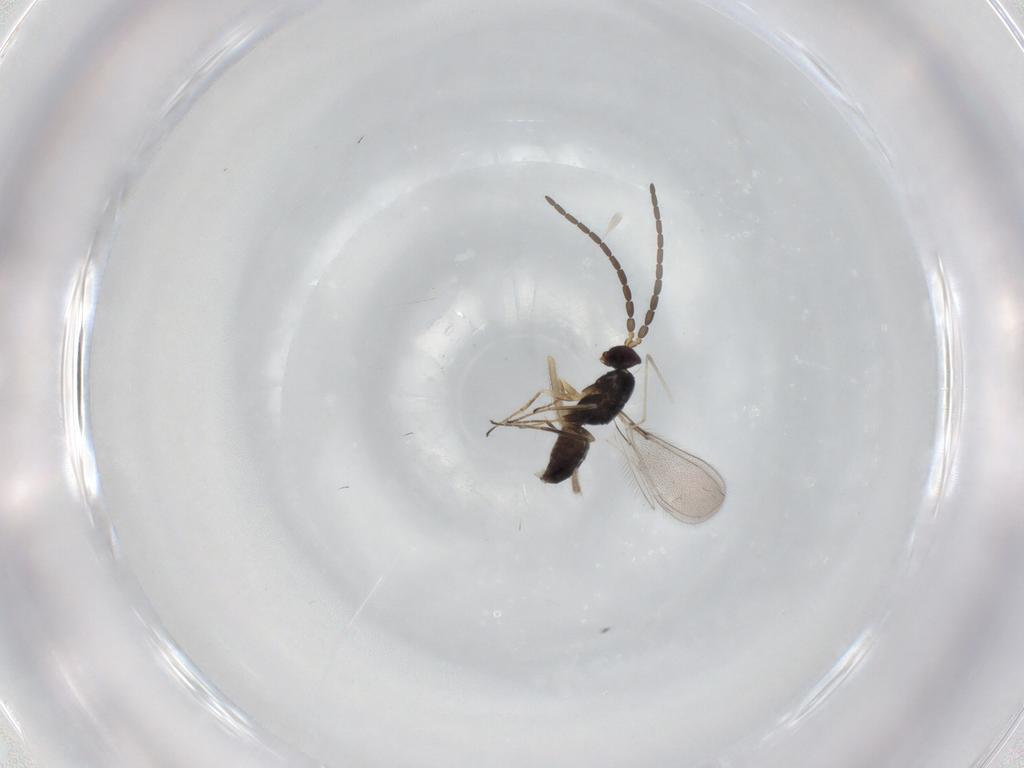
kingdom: Animalia
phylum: Arthropoda
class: Insecta
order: Hymenoptera
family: Mymaridae
